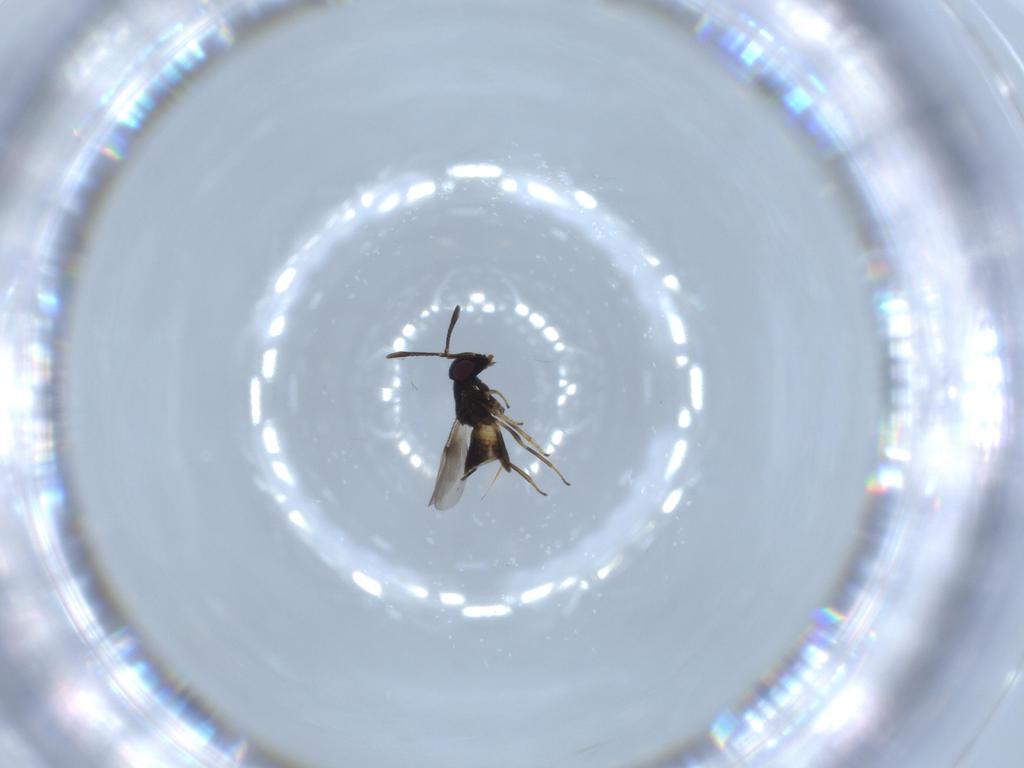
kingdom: Animalia
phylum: Arthropoda
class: Insecta
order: Hymenoptera
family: Encyrtidae
